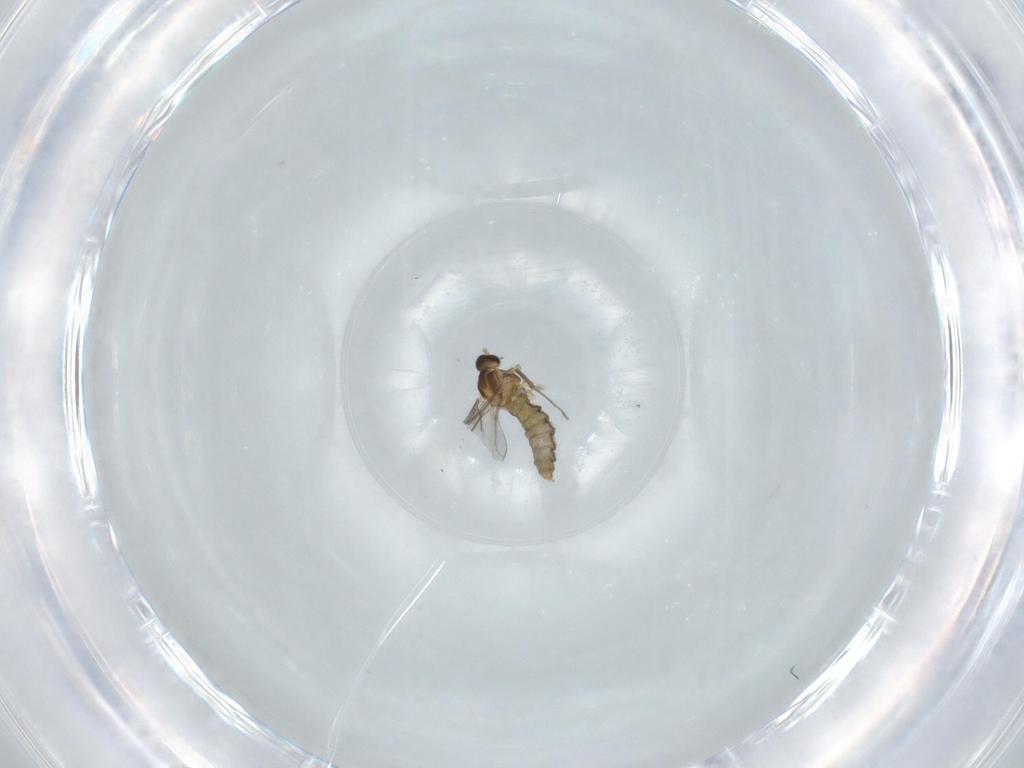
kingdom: Animalia
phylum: Arthropoda
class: Insecta
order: Diptera
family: Cecidomyiidae
